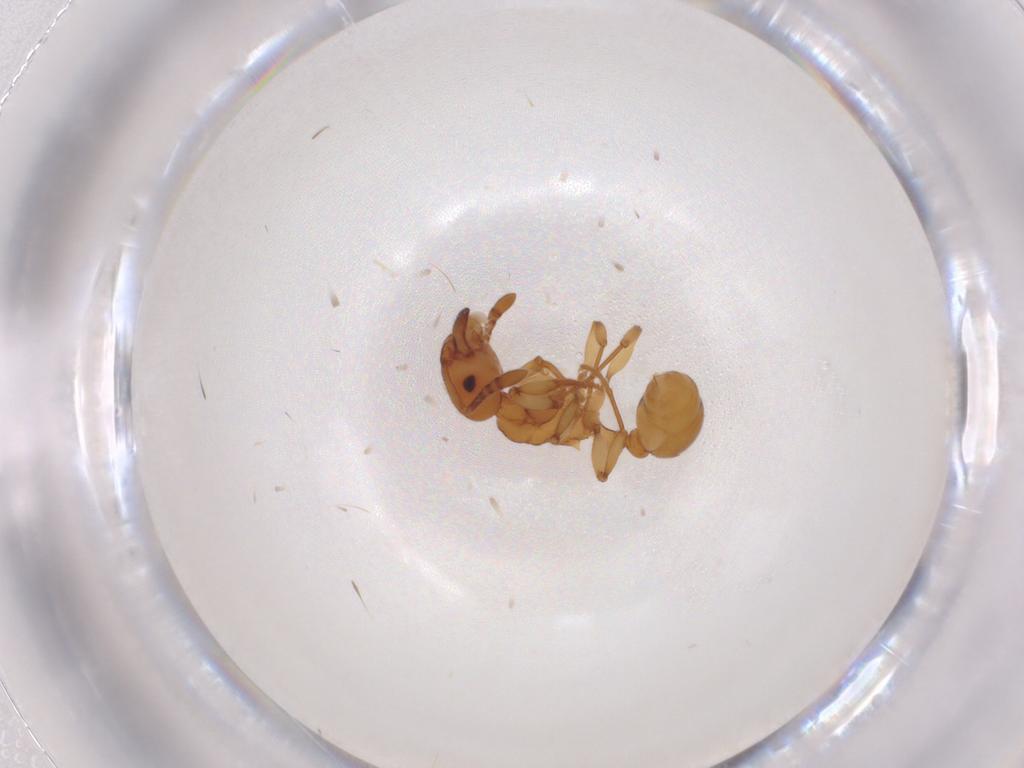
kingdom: Animalia
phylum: Arthropoda
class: Insecta
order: Hymenoptera
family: Formicidae
